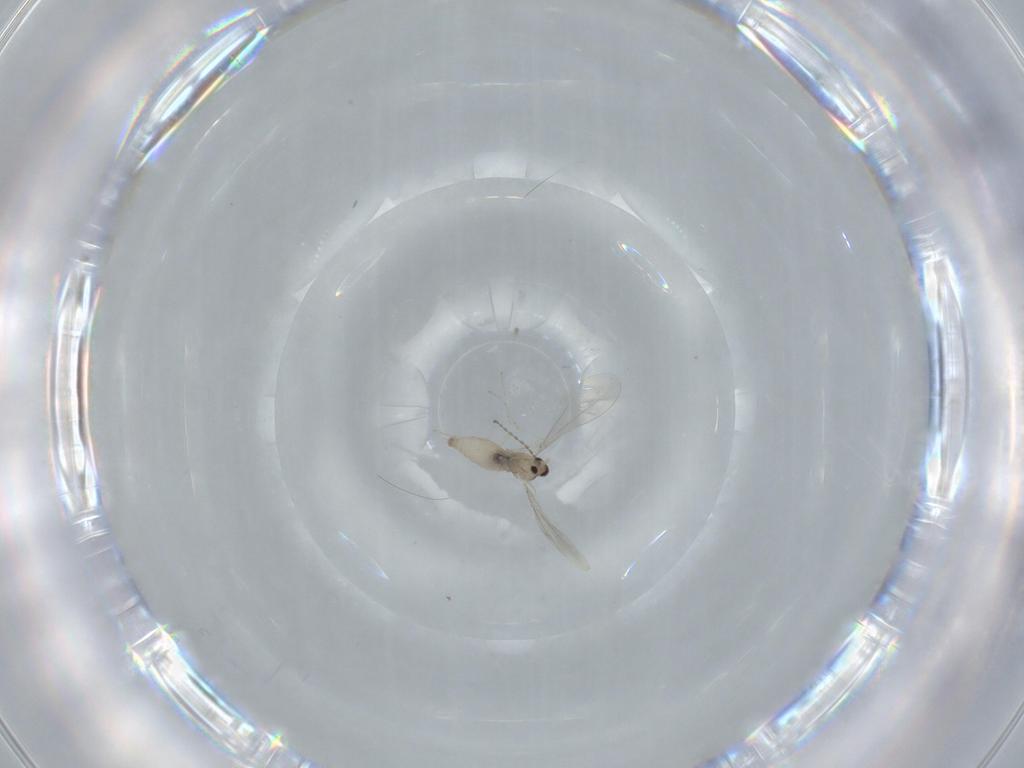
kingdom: Animalia
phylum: Arthropoda
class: Insecta
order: Diptera
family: Cecidomyiidae
